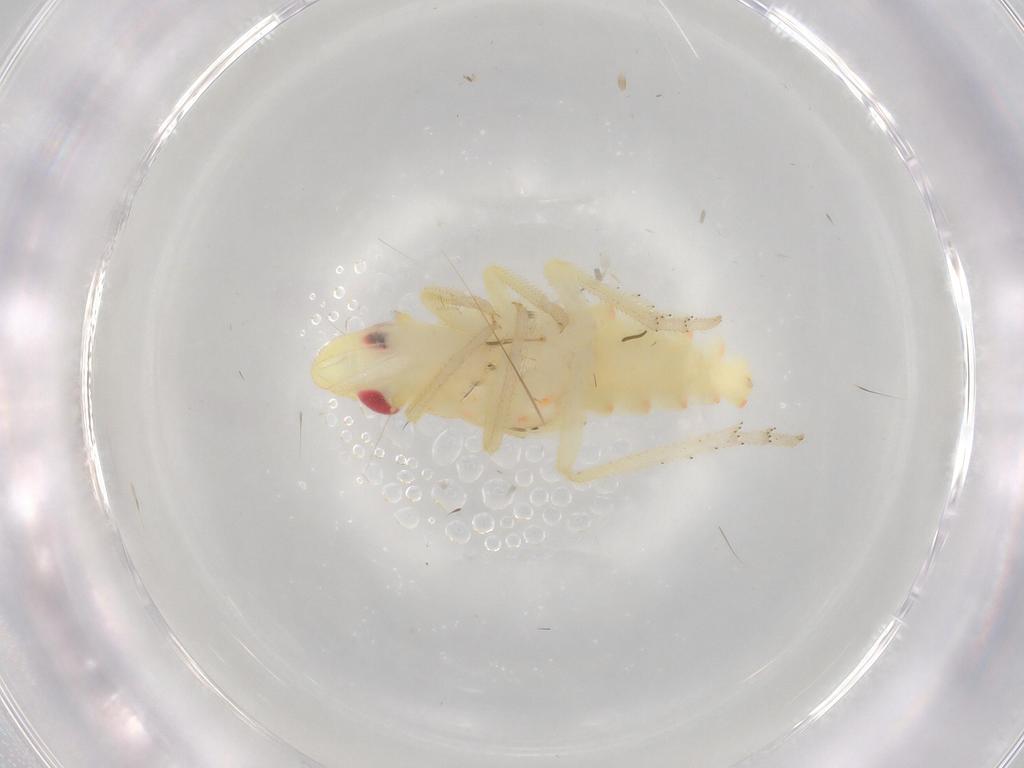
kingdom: Animalia
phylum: Arthropoda
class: Insecta
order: Hemiptera
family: Tropiduchidae
